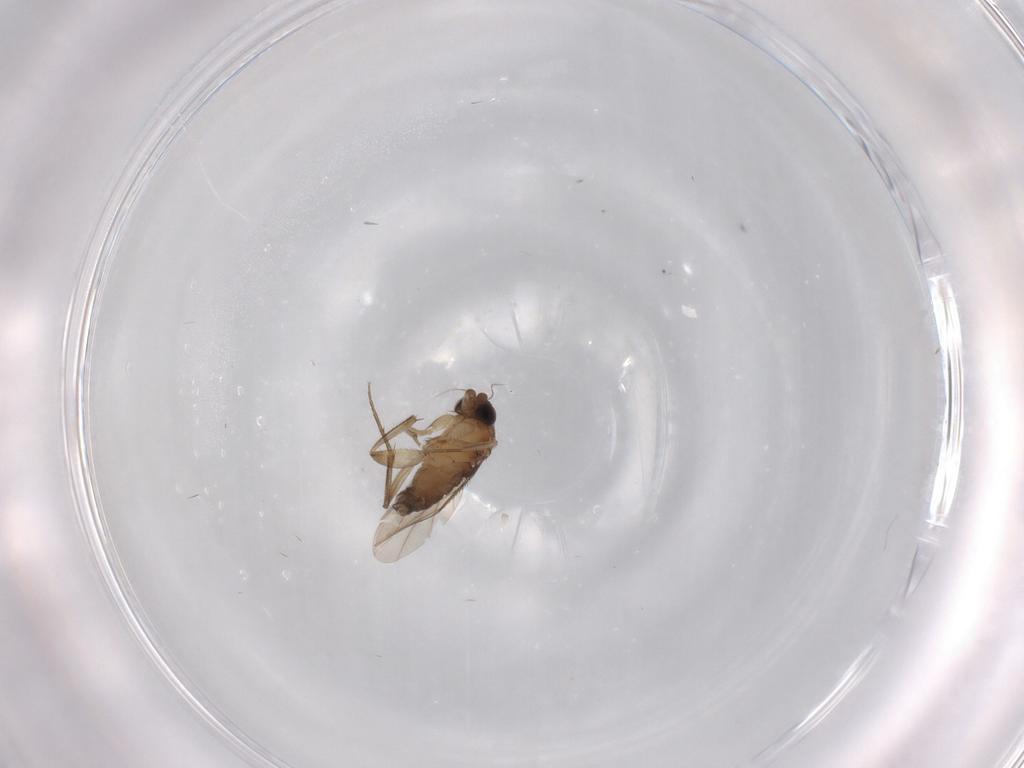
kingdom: Animalia
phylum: Arthropoda
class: Insecta
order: Diptera
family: Phoridae
